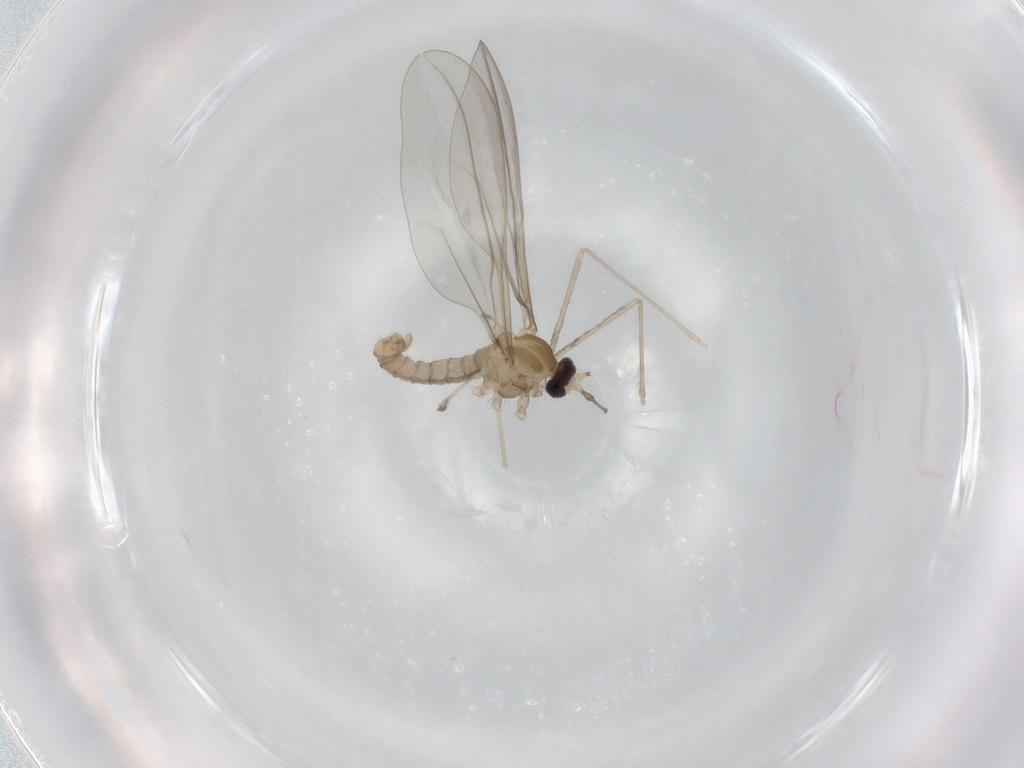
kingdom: Animalia
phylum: Arthropoda
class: Insecta
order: Diptera
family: Cecidomyiidae
